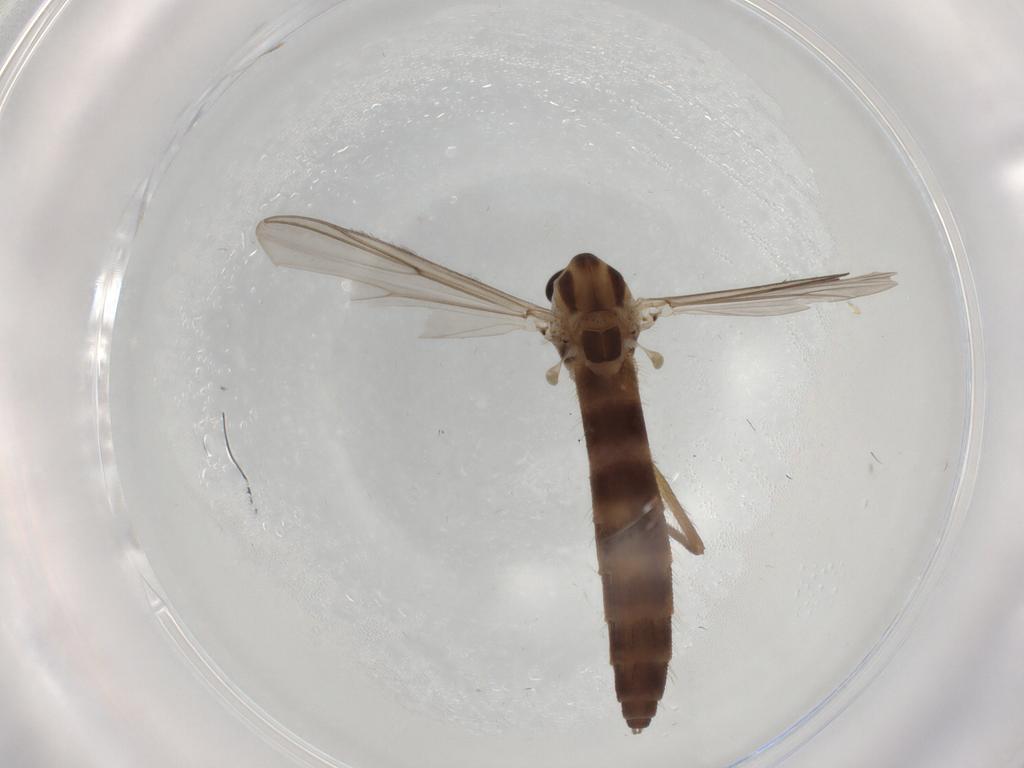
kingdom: Animalia
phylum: Arthropoda
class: Insecta
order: Diptera
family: Chironomidae
